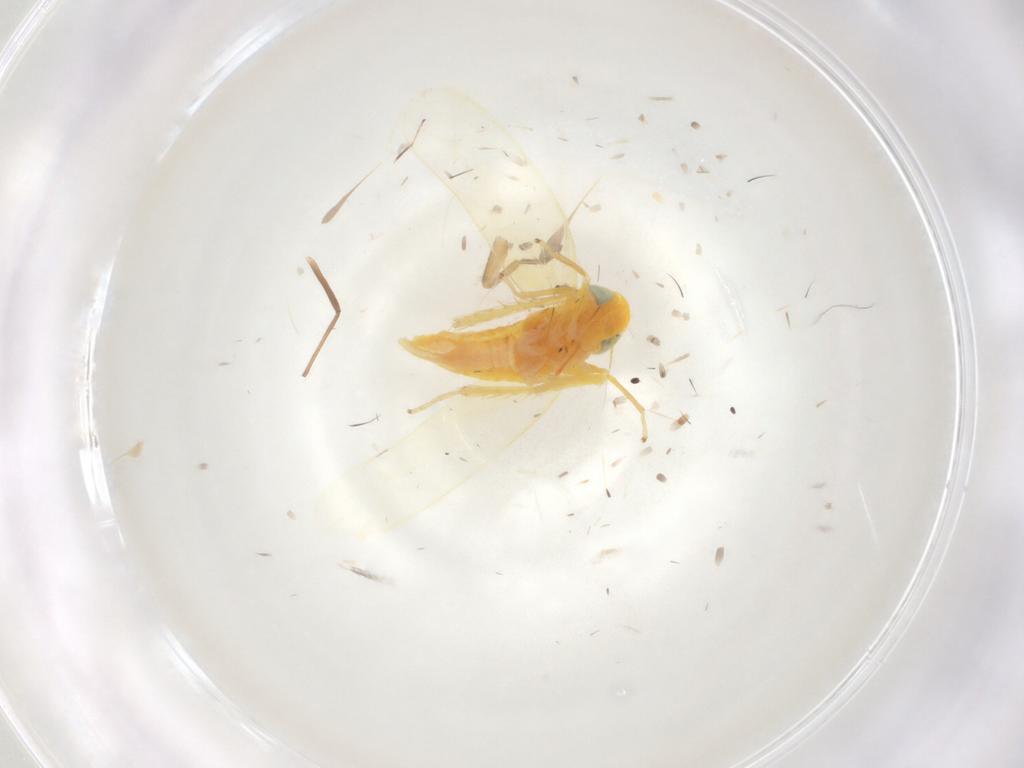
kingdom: Animalia
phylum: Arthropoda
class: Insecta
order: Hemiptera
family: Cicadellidae
